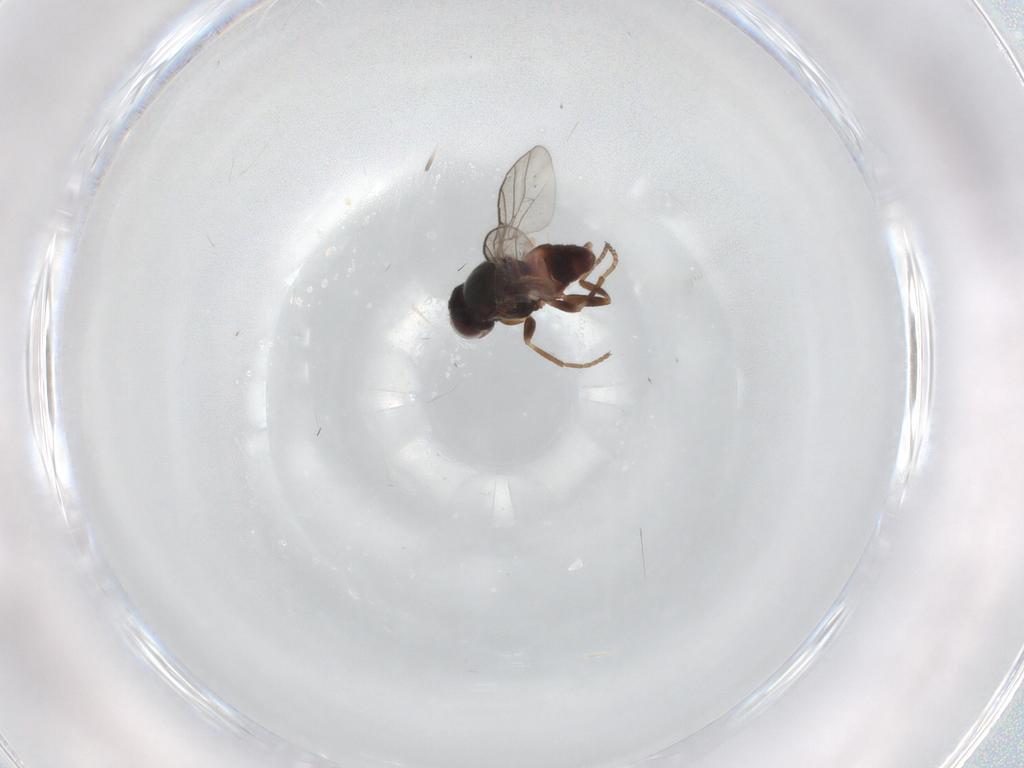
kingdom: Animalia
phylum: Arthropoda
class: Insecta
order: Diptera
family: Chloropidae
